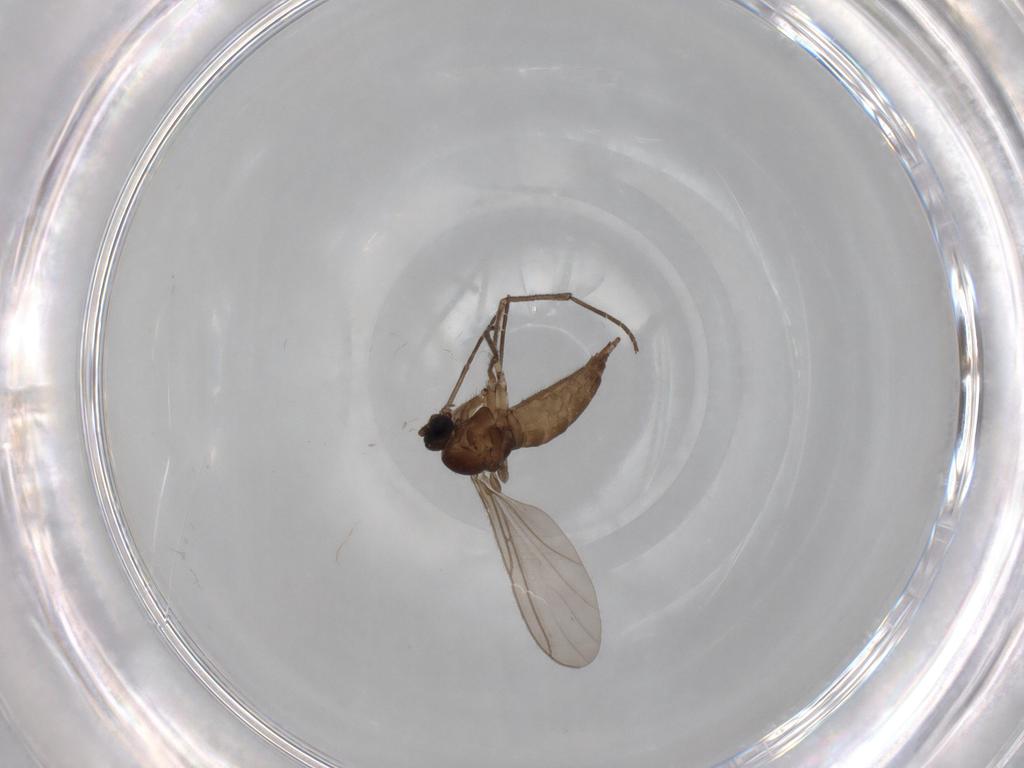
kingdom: Animalia
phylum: Arthropoda
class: Insecta
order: Diptera
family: Sciaridae
